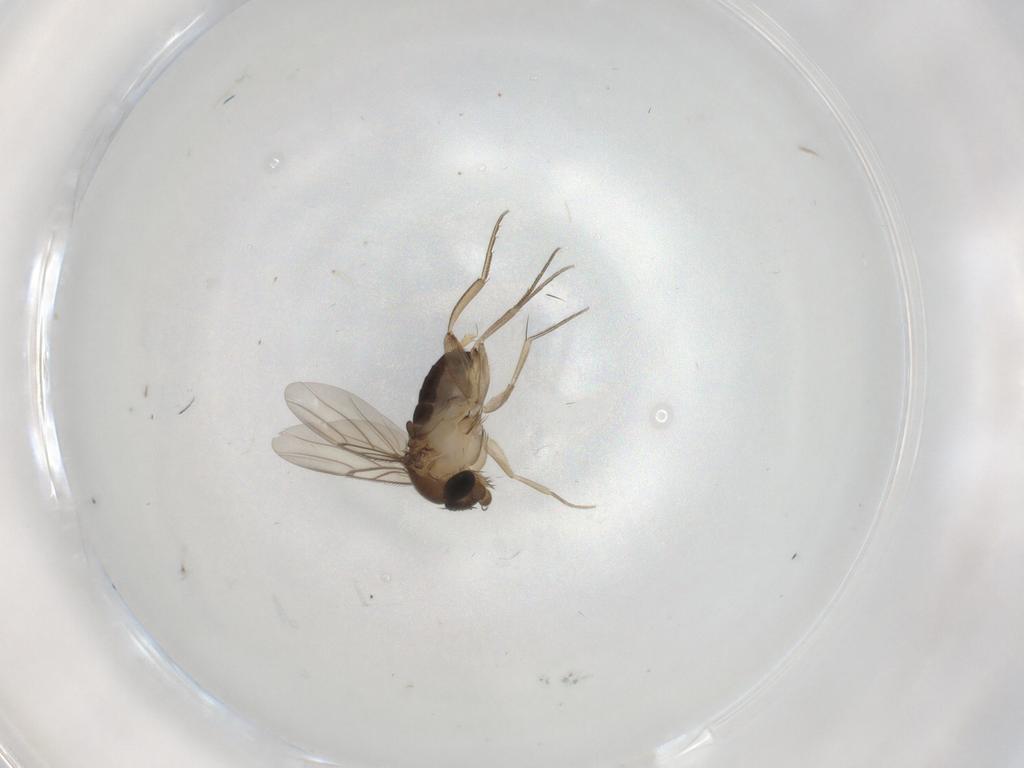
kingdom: Animalia
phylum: Arthropoda
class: Insecta
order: Diptera
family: Phoridae
